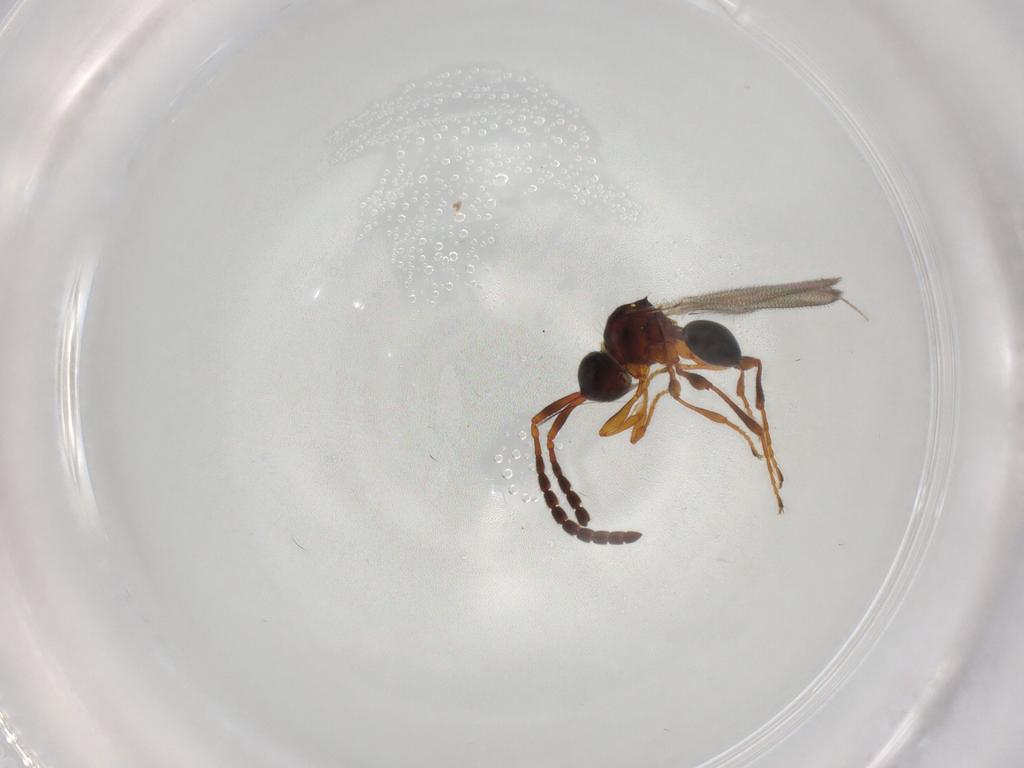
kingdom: Animalia
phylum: Arthropoda
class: Insecta
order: Hymenoptera
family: Diapriidae
